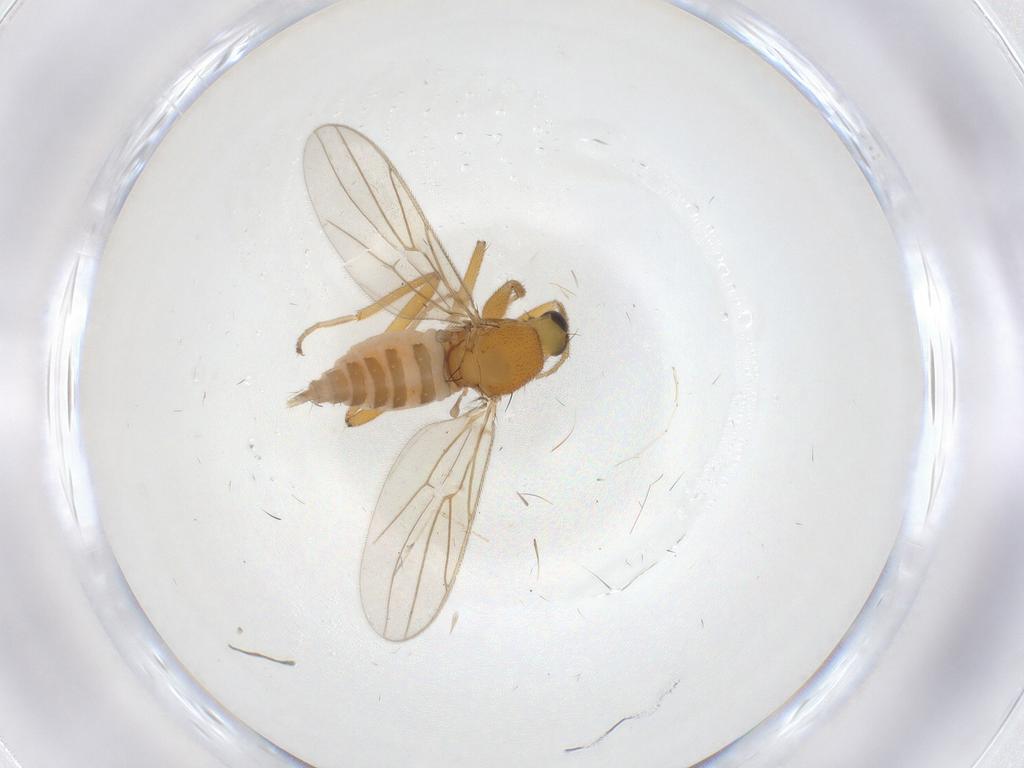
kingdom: Animalia
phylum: Arthropoda
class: Insecta
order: Diptera
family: Hybotidae
